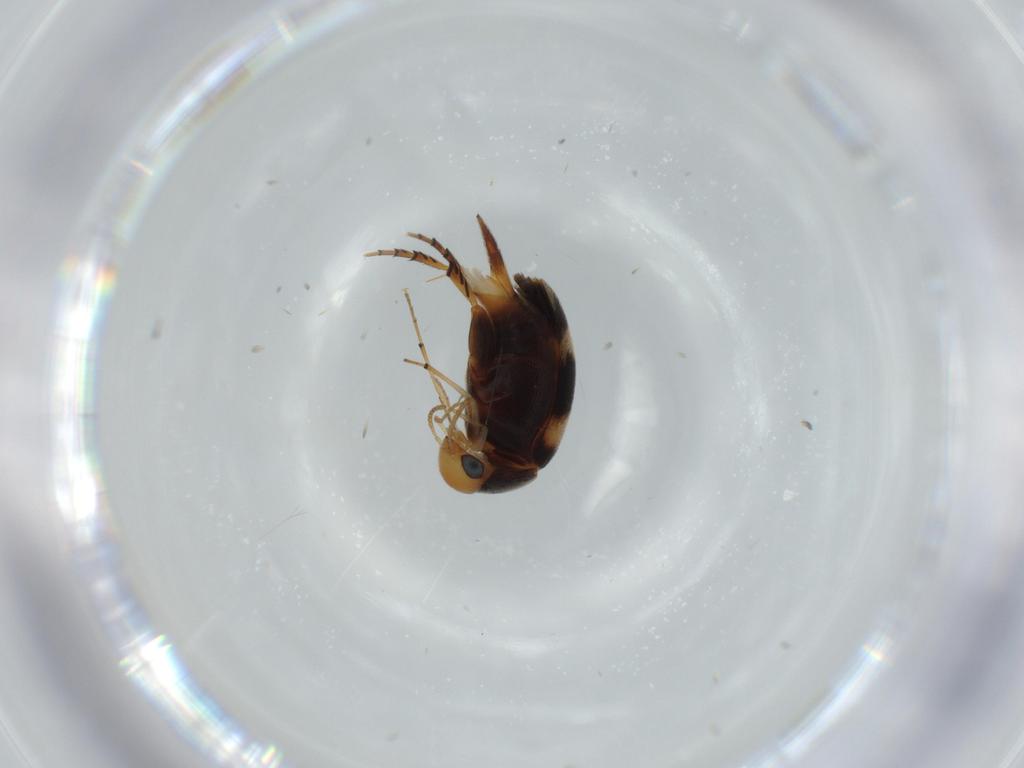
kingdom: Animalia
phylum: Arthropoda
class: Insecta
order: Coleoptera
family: Mordellidae
